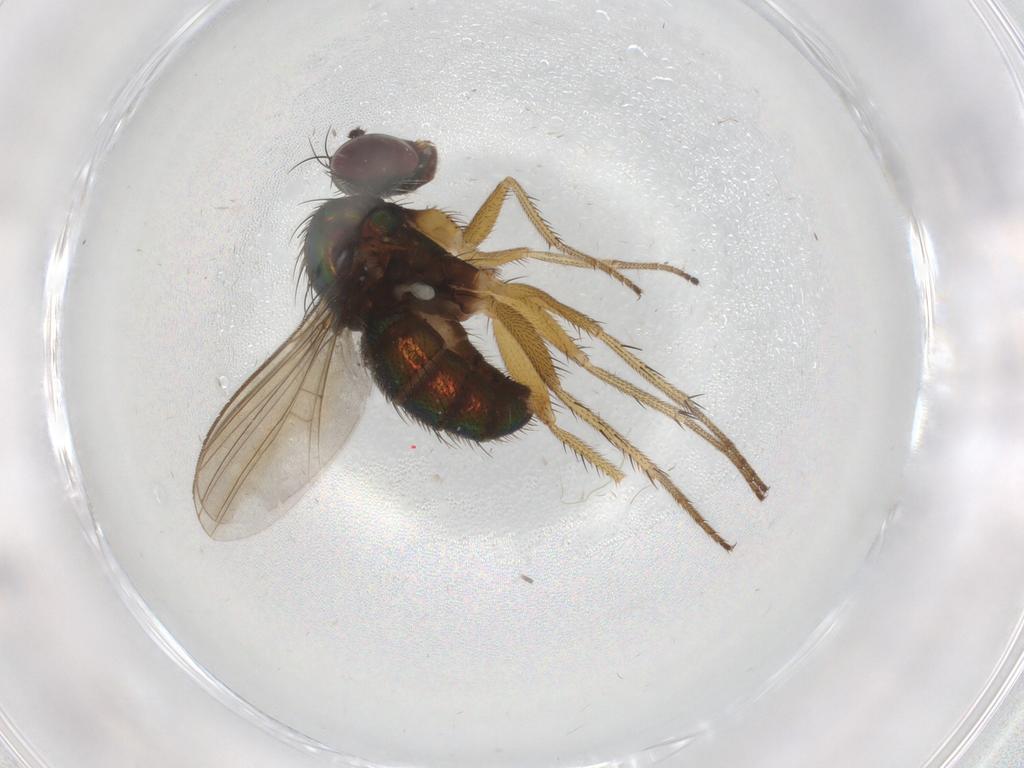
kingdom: Animalia
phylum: Arthropoda
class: Insecta
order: Diptera
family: Dolichopodidae
